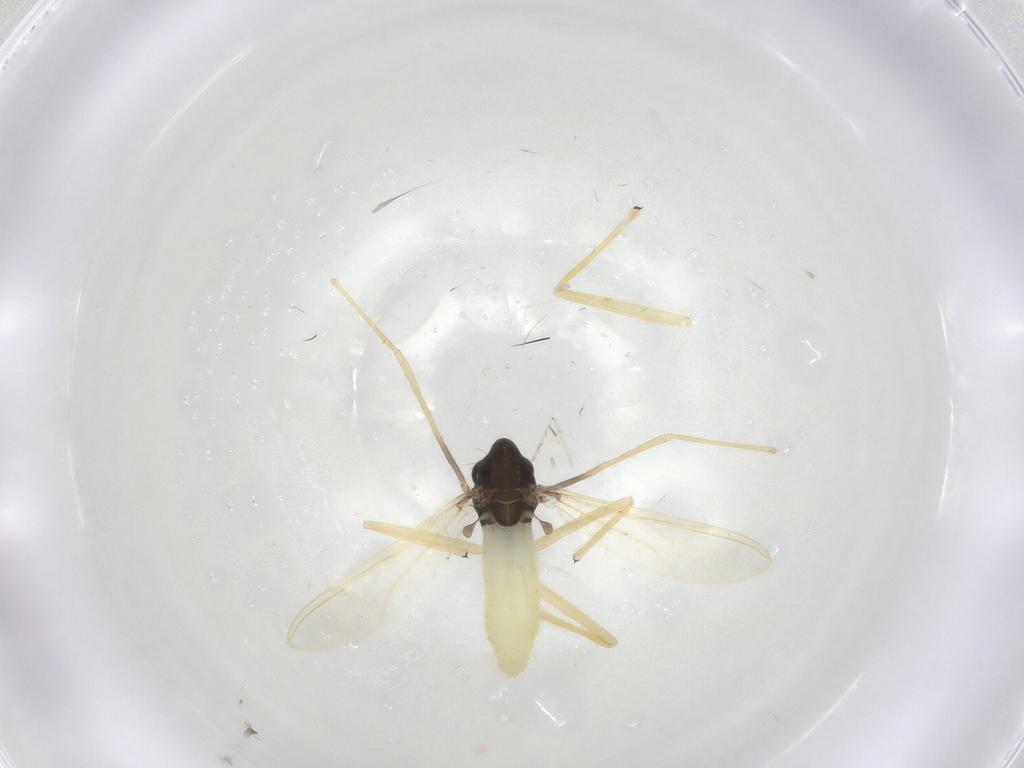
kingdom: Animalia
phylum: Arthropoda
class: Insecta
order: Diptera
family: Chironomidae
